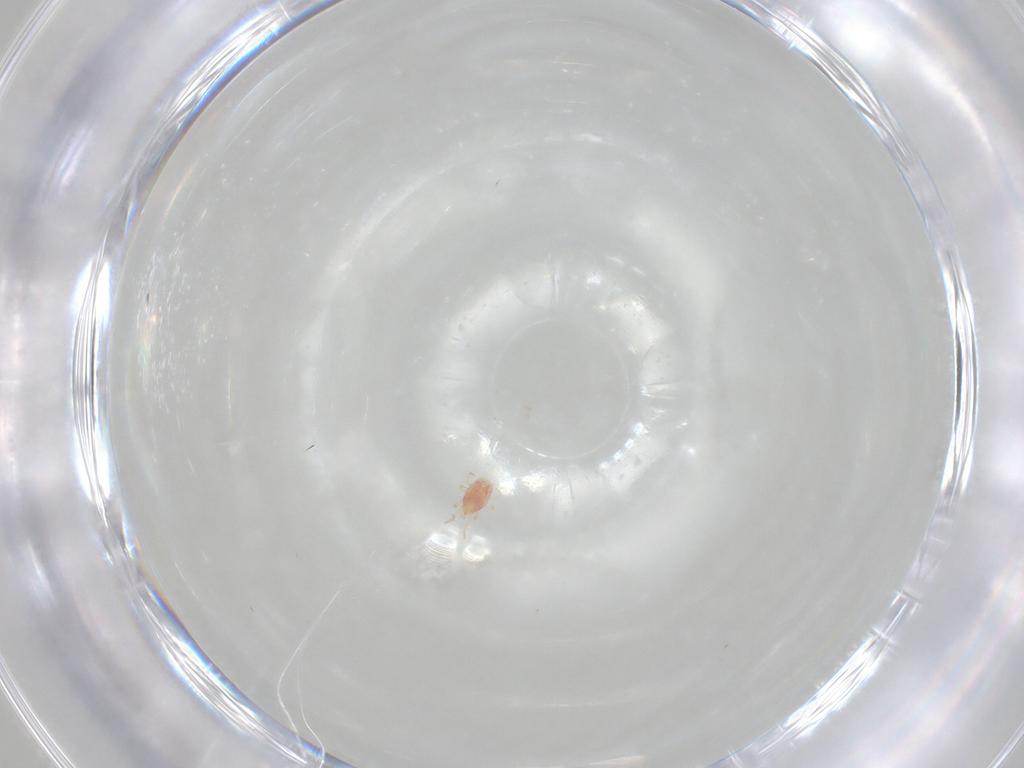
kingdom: Animalia
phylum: Arthropoda
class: Arachnida
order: Mesostigmata
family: Phytoseiidae
